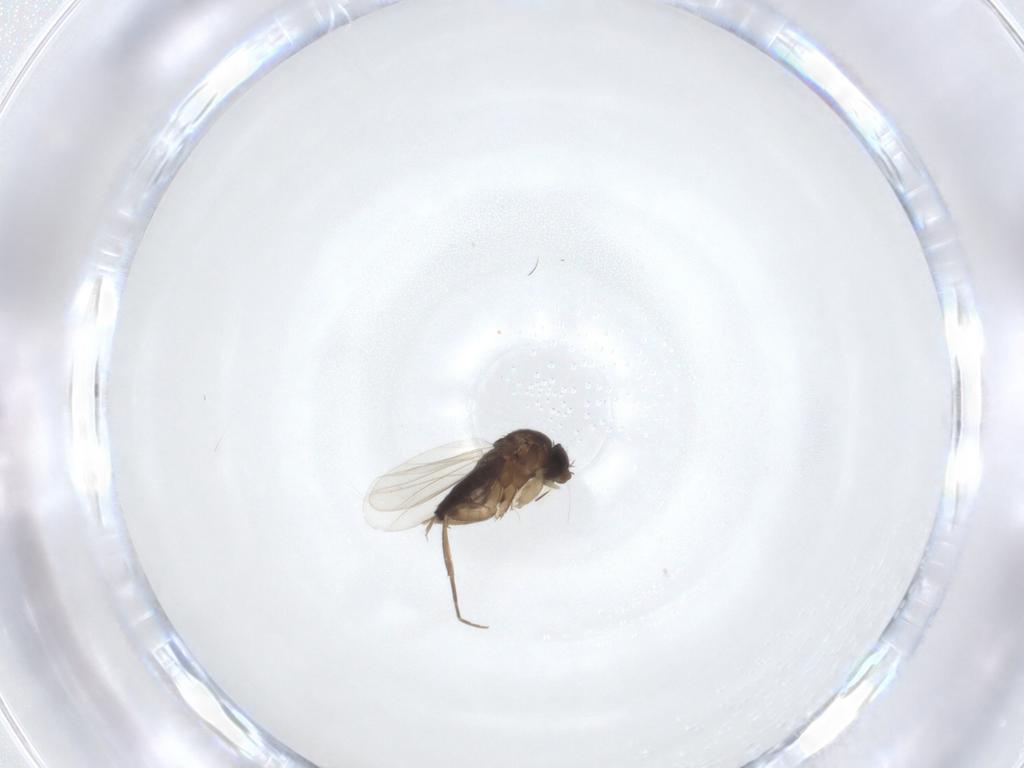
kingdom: Animalia
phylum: Arthropoda
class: Insecta
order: Diptera
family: Phoridae
